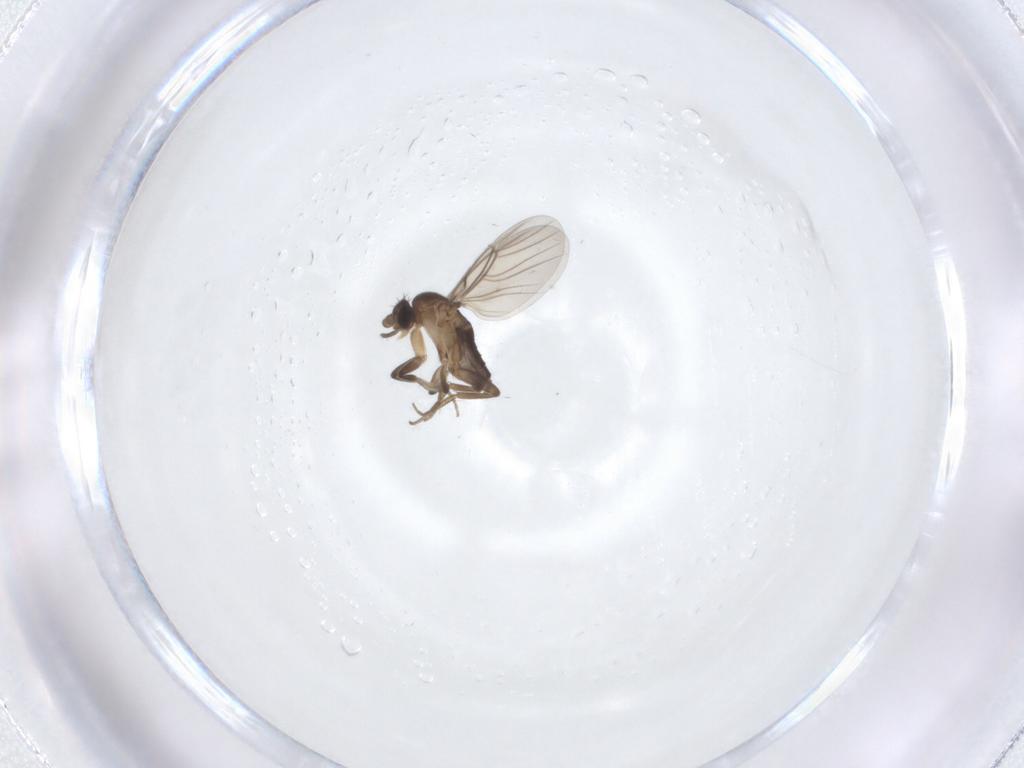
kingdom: Animalia
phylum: Arthropoda
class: Insecta
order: Diptera
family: Phoridae
